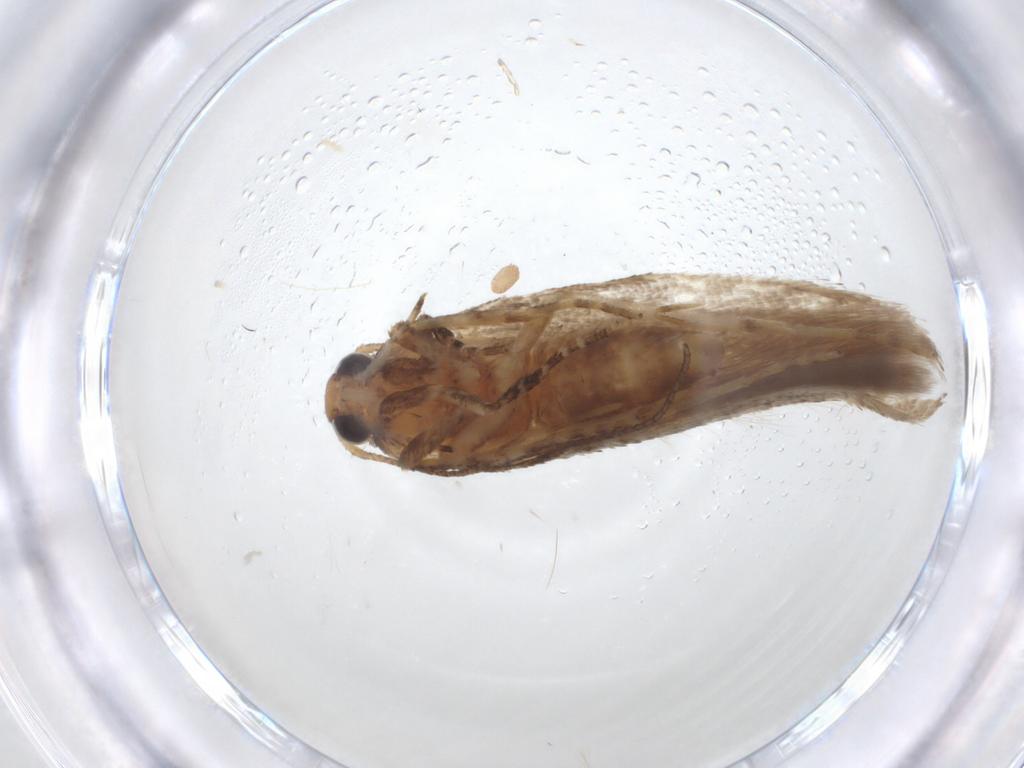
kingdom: Animalia
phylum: Arthropoda
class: Insecta
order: Lepidoptera
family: Gelechiidae
